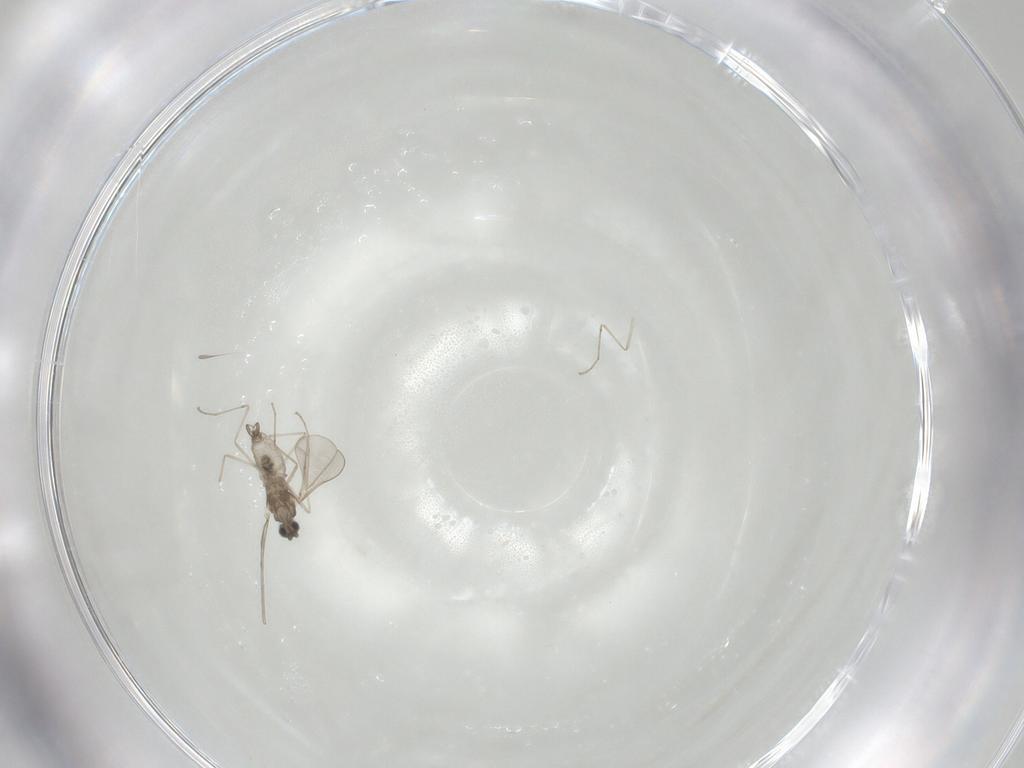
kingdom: Animalia
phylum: Arthropoda
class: Insecta
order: Diptera
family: Cecidomyiidae
